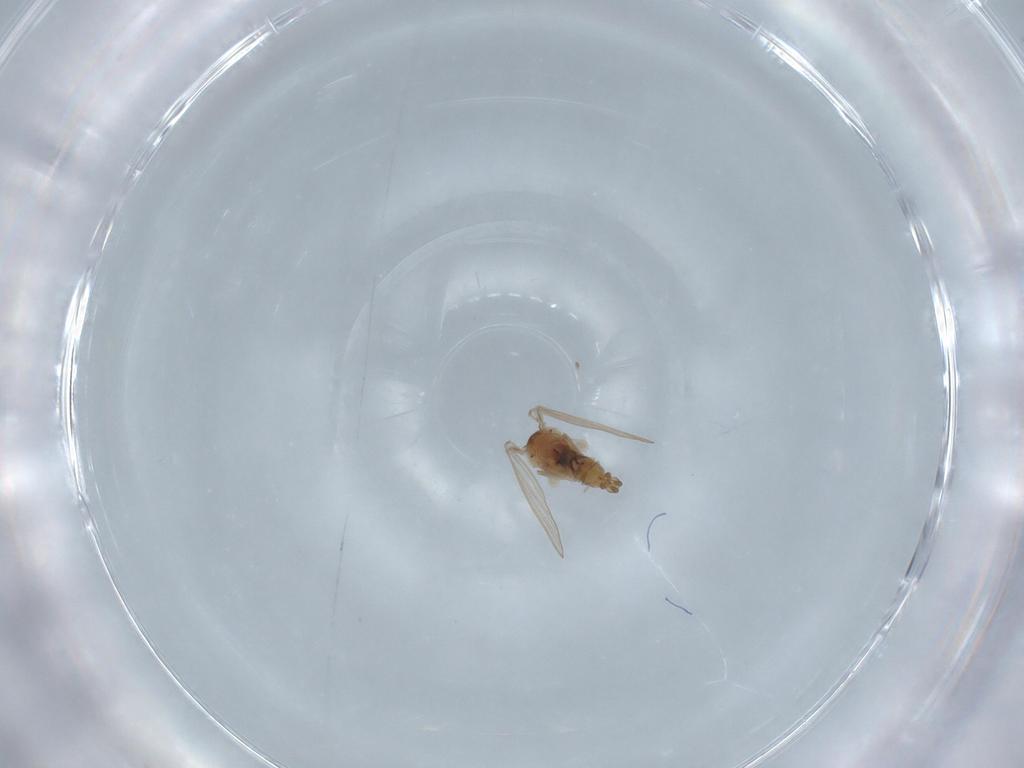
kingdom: Animalia
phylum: Arthropoda
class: Insecta
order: Diptera
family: Psychodidae
